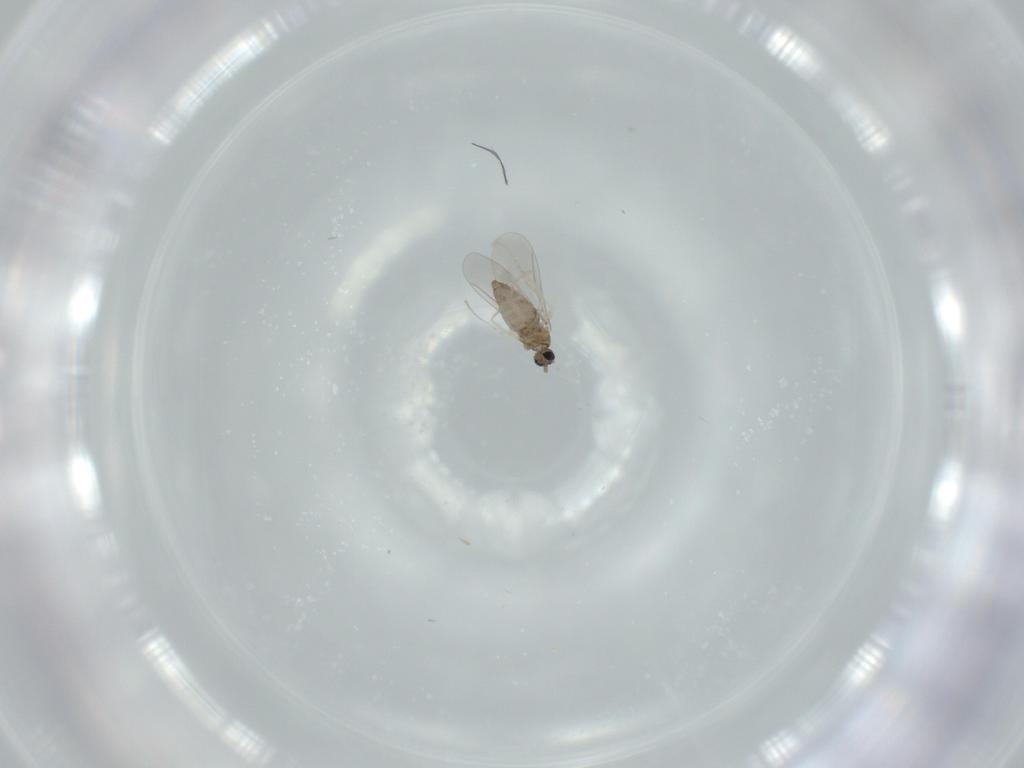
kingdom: Animalia
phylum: Arthropoda
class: Insecta
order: Diptera
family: Cecidomyiidae
